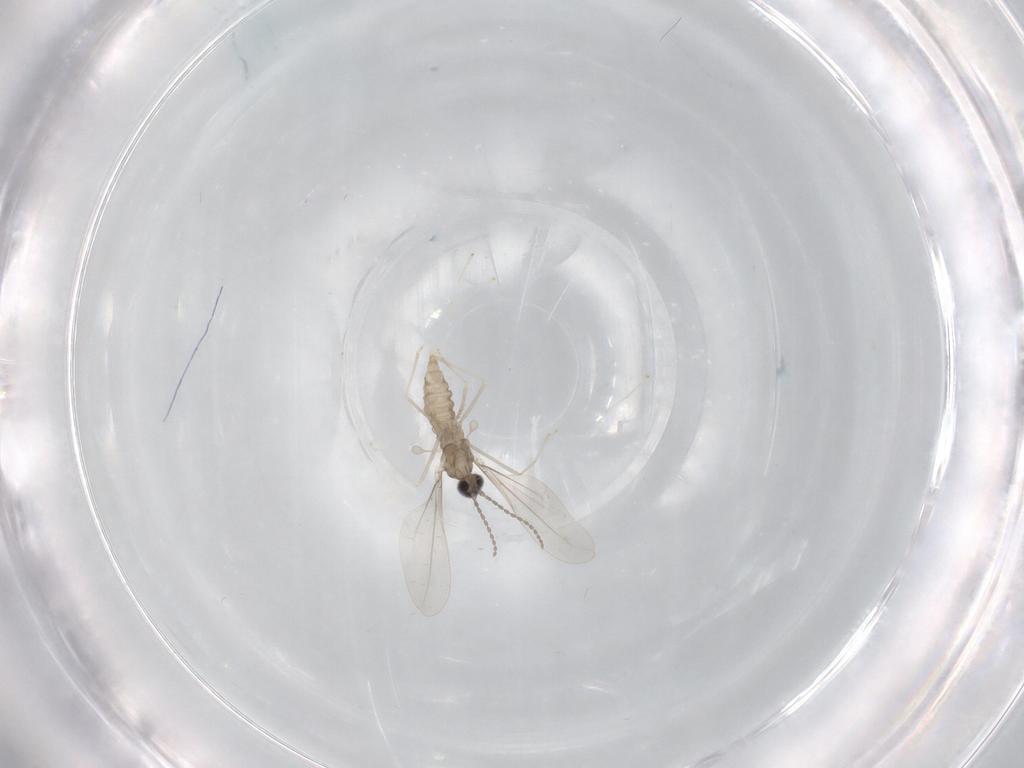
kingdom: Animalia
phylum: Arthropoda
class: Insecta
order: Diptera
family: Cecidomyiidae
